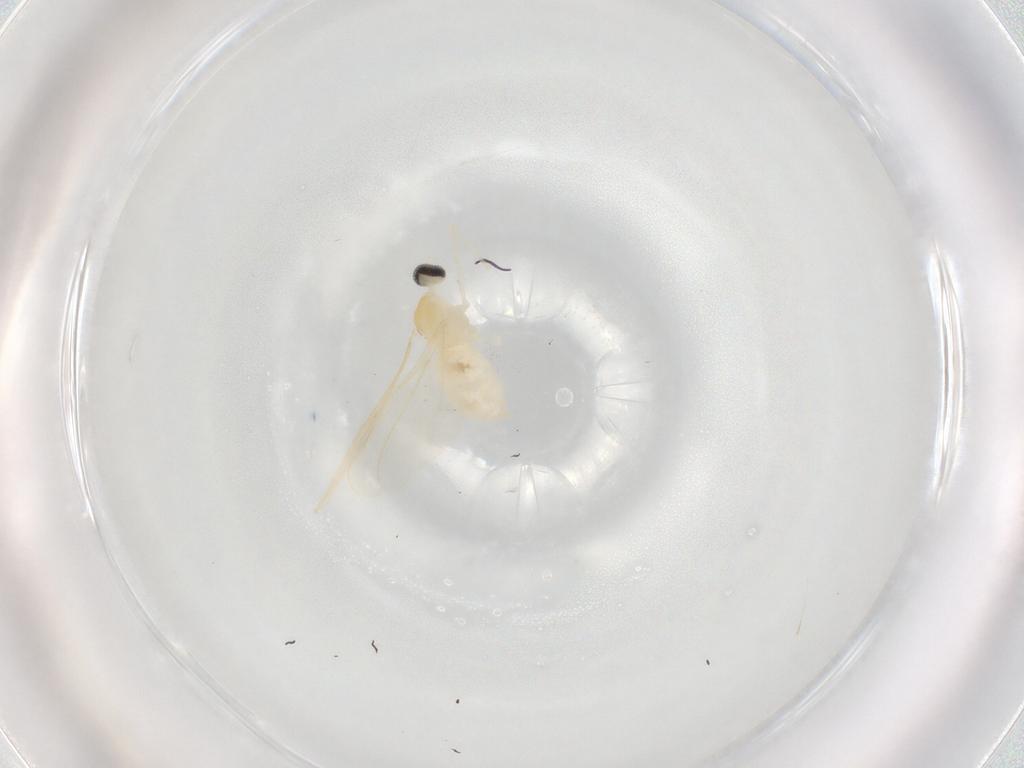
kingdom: Animalia
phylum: Arthropoda
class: Insecta
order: Diptera
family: Cecidomyiidae
